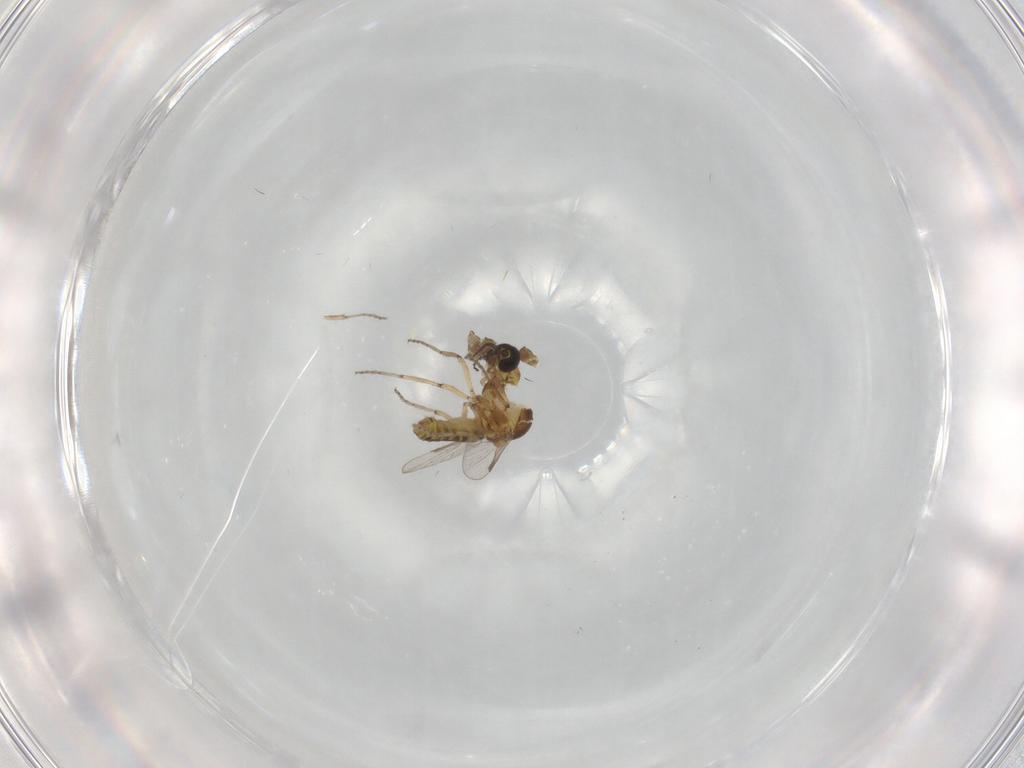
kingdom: Animalia
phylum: Arthropoda
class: Insecta
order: Diptera
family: Ceratopogonidae
